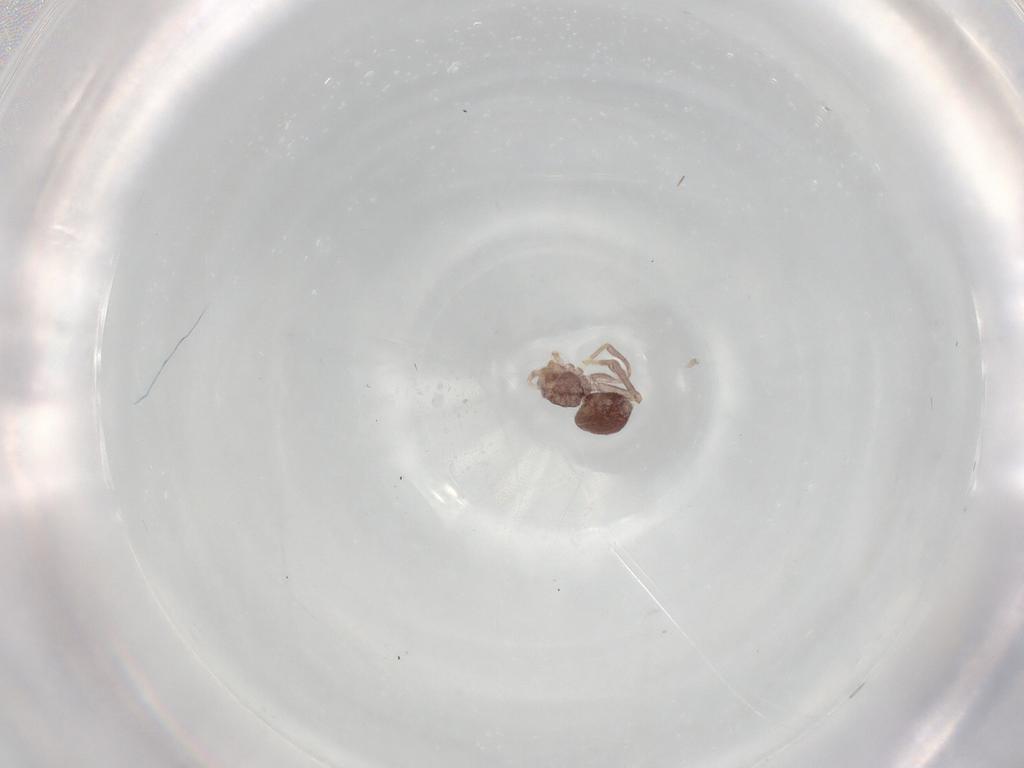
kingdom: Animalia
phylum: Arthropoda
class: Arachnida
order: Araneae
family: Ochyroceratidae
